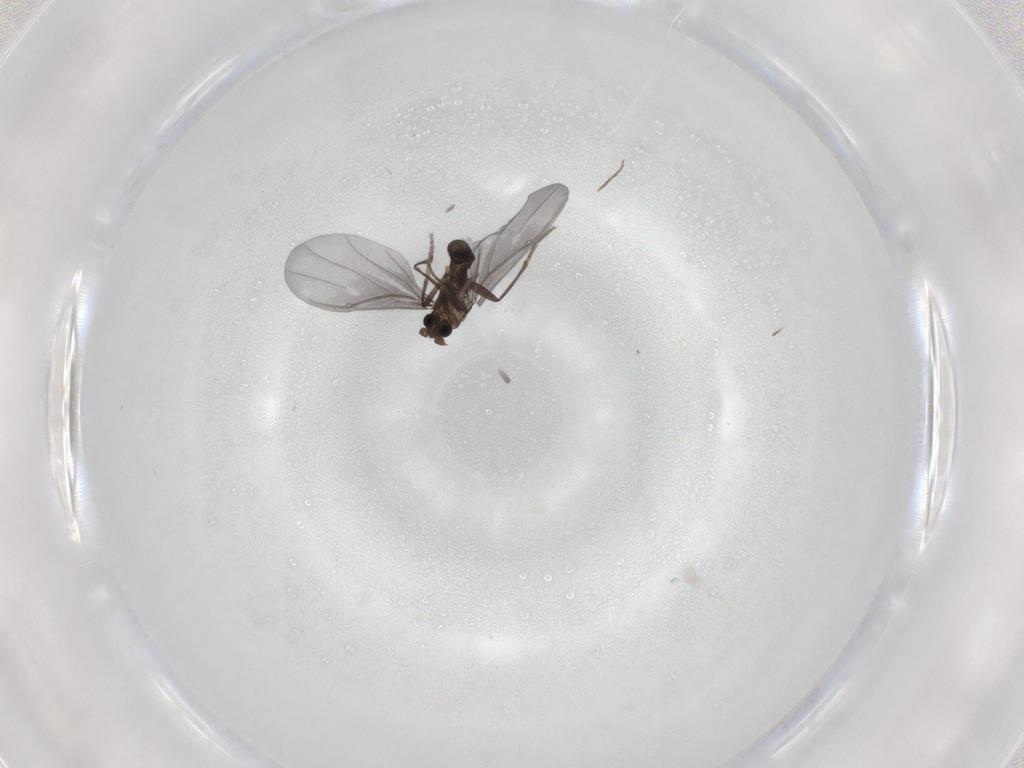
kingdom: Animalia
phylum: Arthropoda
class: Insecta
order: Diptera
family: Phoridae
